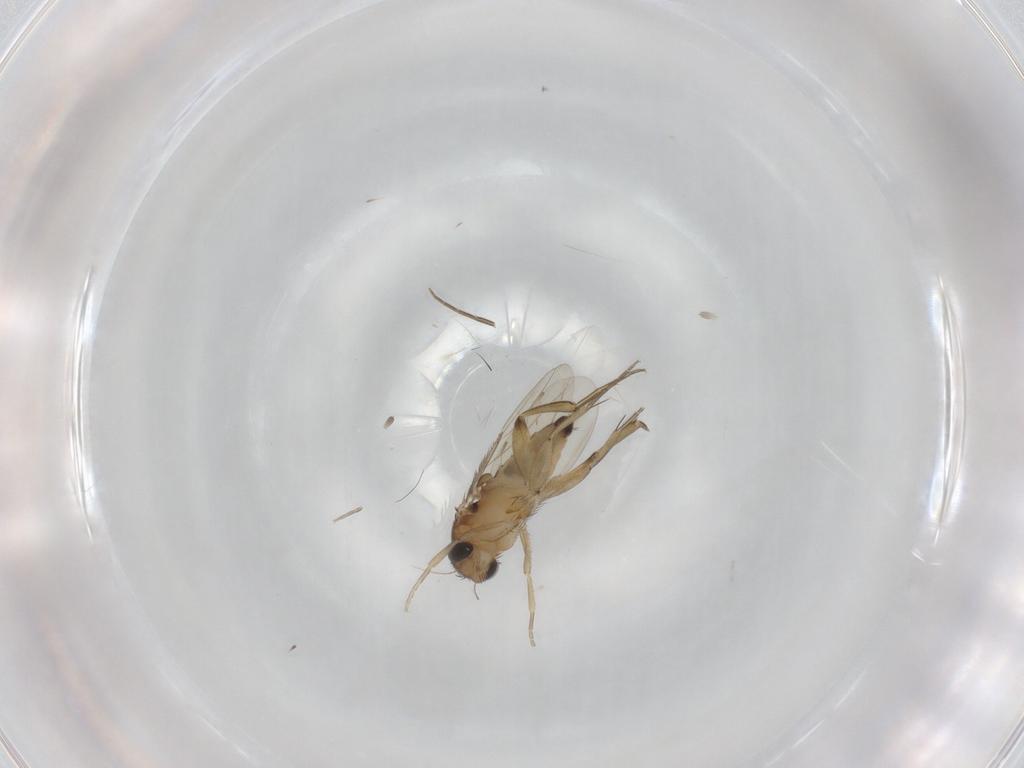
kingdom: Animalia
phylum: Arthropoda
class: Insecta
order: Diptera
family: Phoridae
